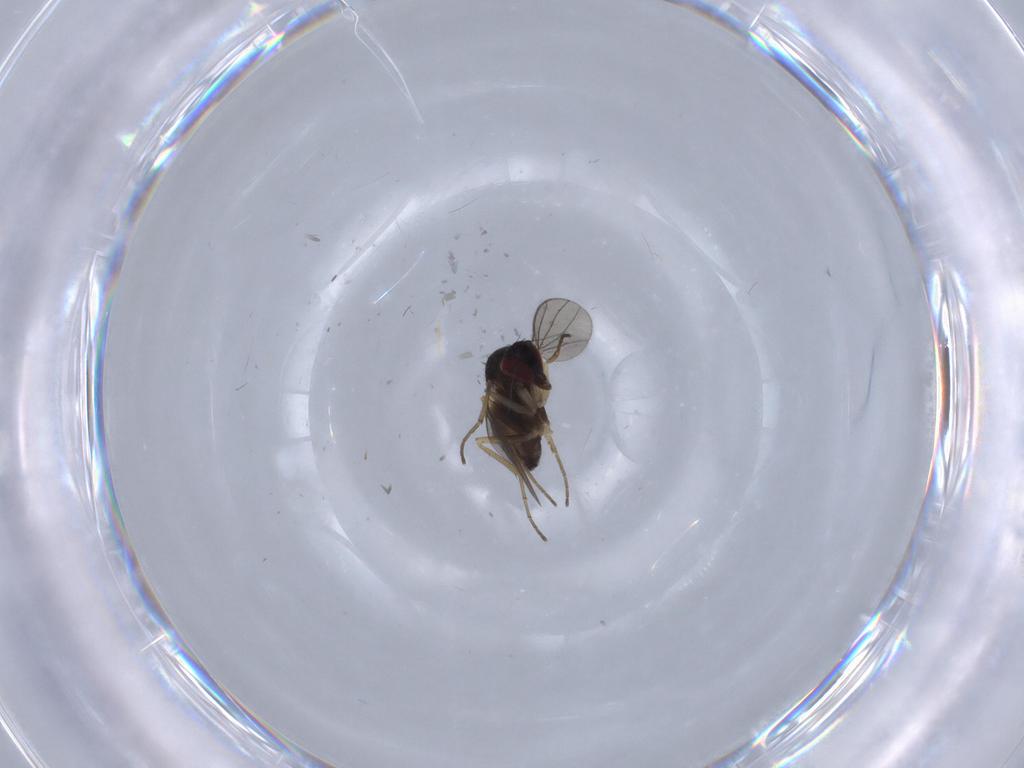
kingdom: Animalia
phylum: Arthropoda
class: Insecta
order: Diptera
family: Dolichopodidae
